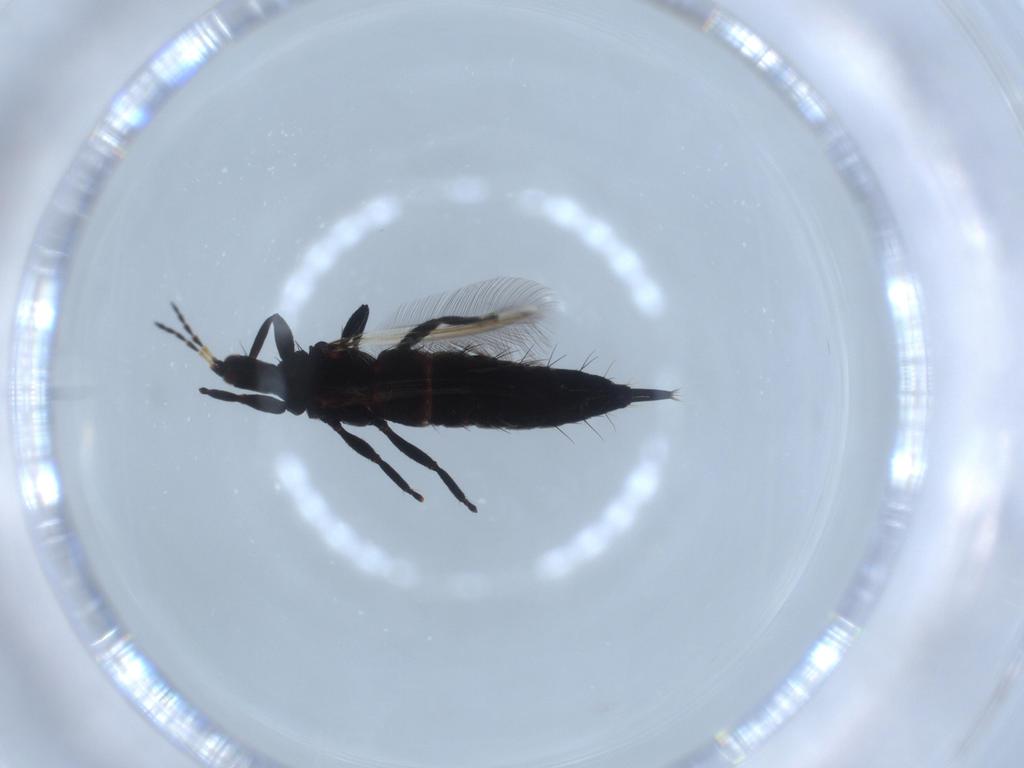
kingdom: Animalia
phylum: Arthropoda
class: Insecta
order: Thysanoptera
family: Phlaeothripidae
